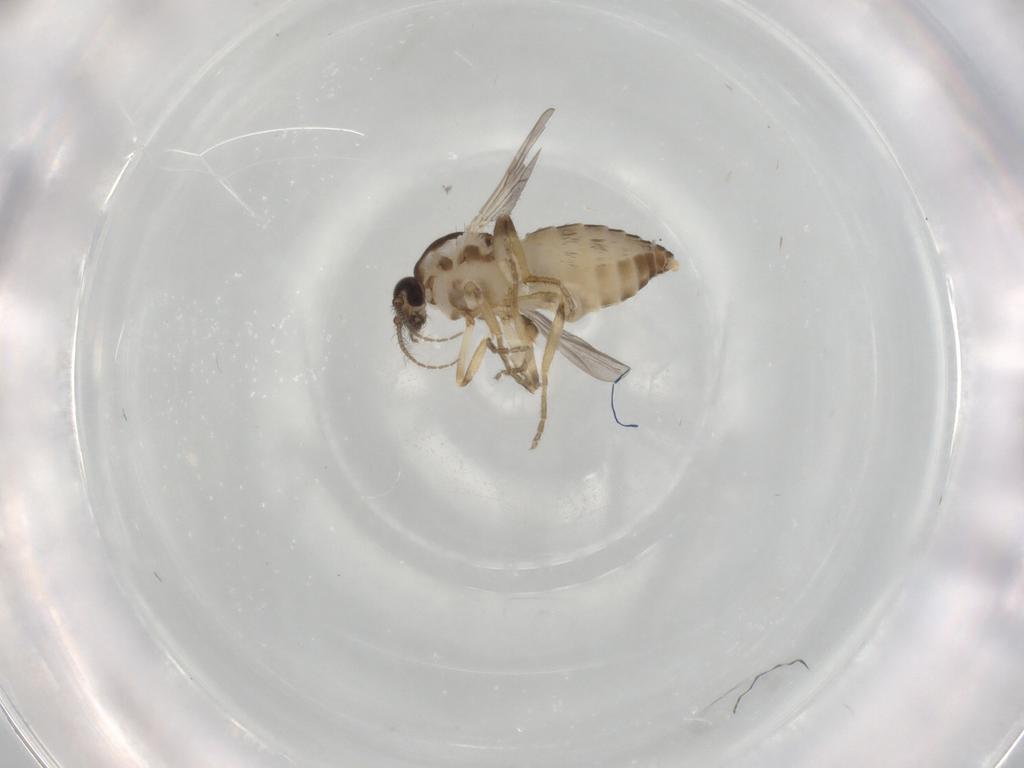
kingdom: Animalia
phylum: Arthropoda
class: Insecta
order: Diptera
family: Ceratopogonidae
